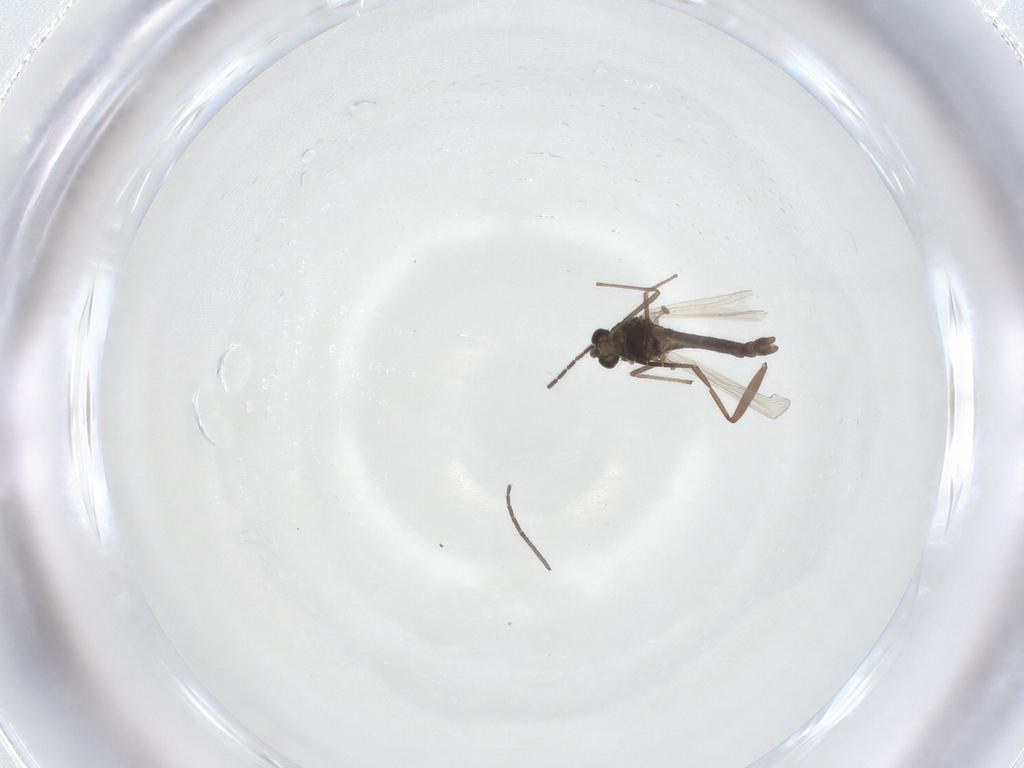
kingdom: Animalia
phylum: Arthropoda
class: Insecta
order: Diptera
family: Chironomidae
